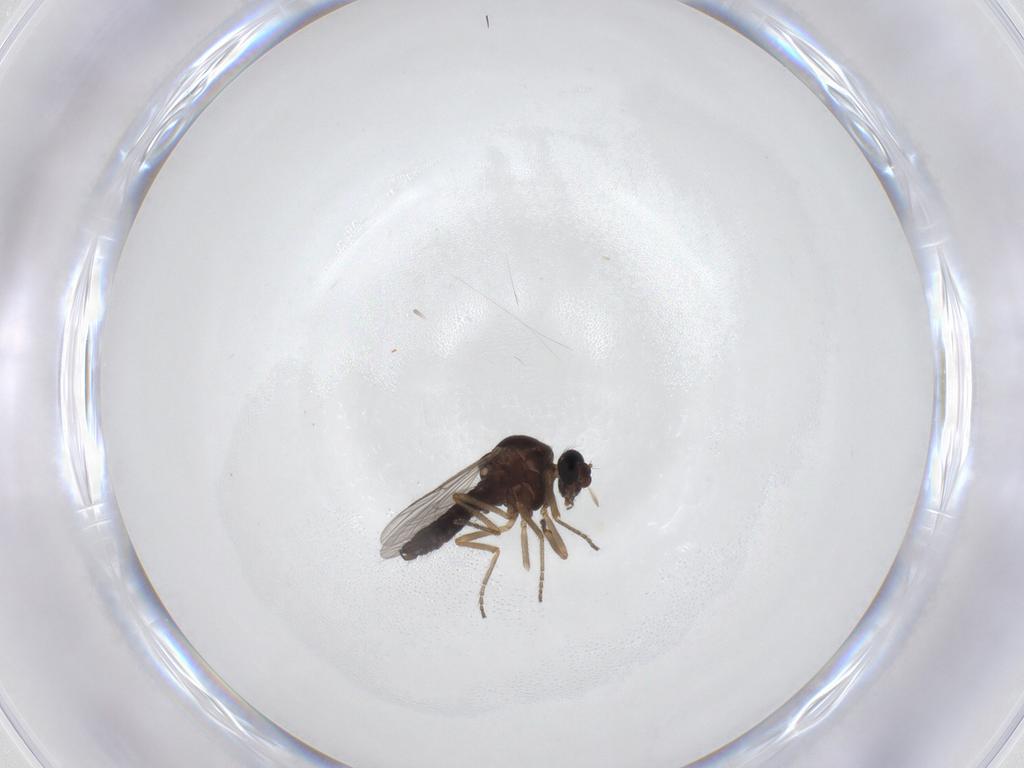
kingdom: Animalia
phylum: Arthropoda
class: Insecta
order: Diptera
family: Ceratopogonidae
